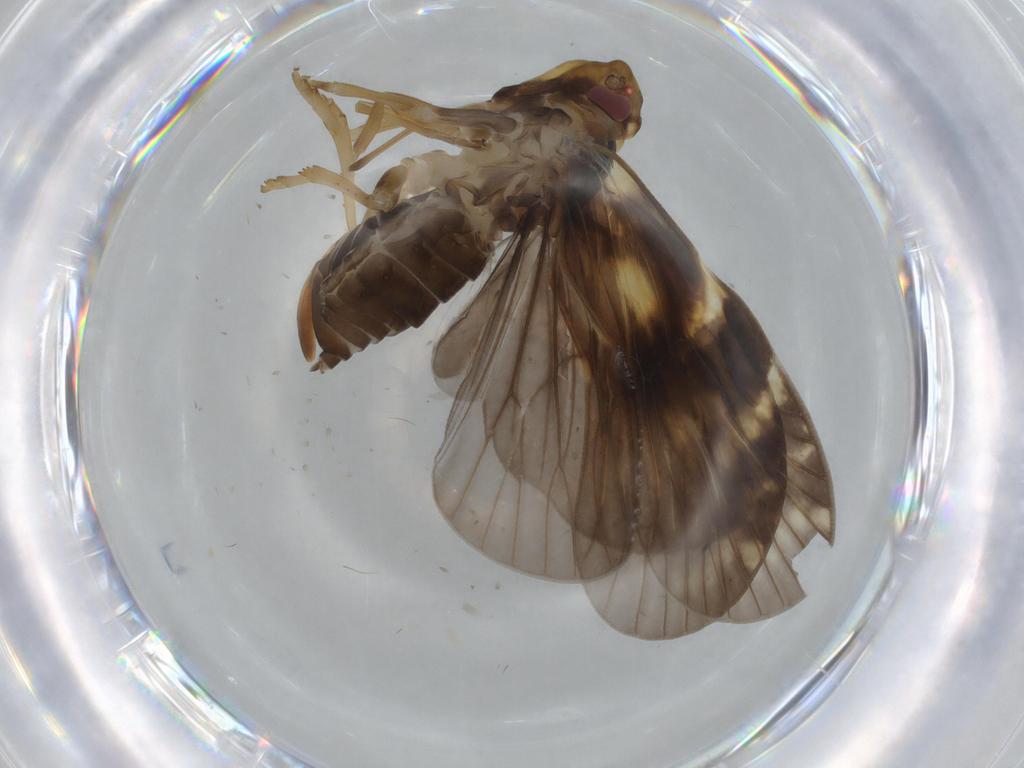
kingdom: Animalia
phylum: Arthropoda
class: Insecta
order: Hemiptera
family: Cixiidae
